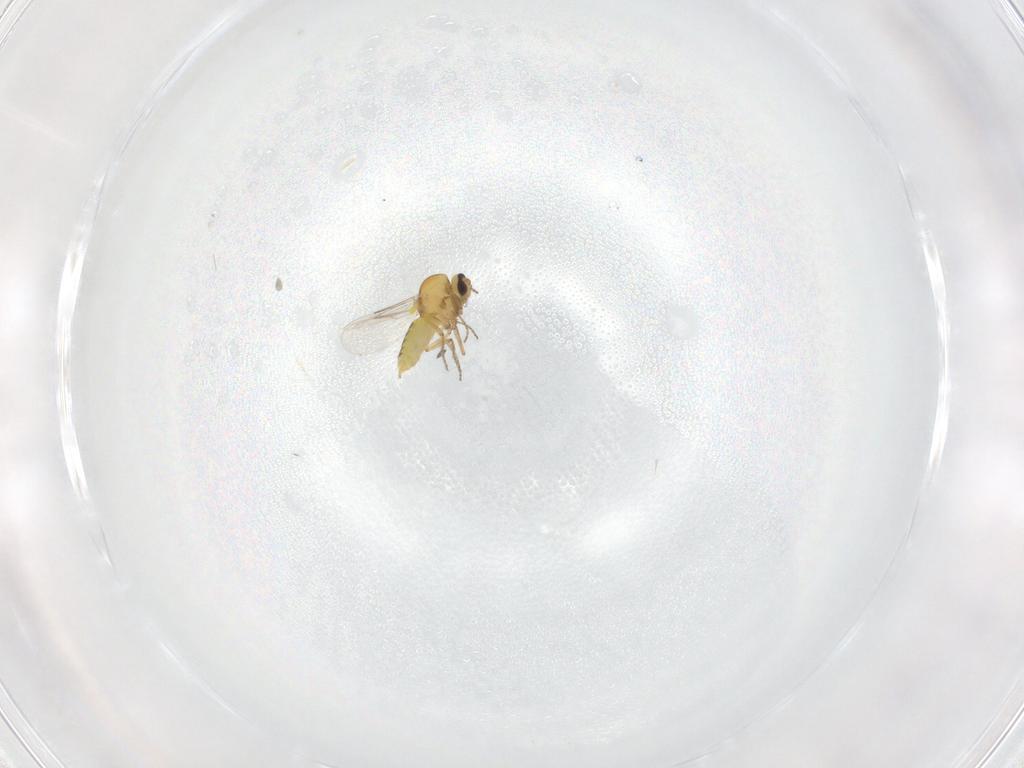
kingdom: Animalia
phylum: Arthropoda
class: Insecta
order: Diptera
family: Ceratopogonidae
